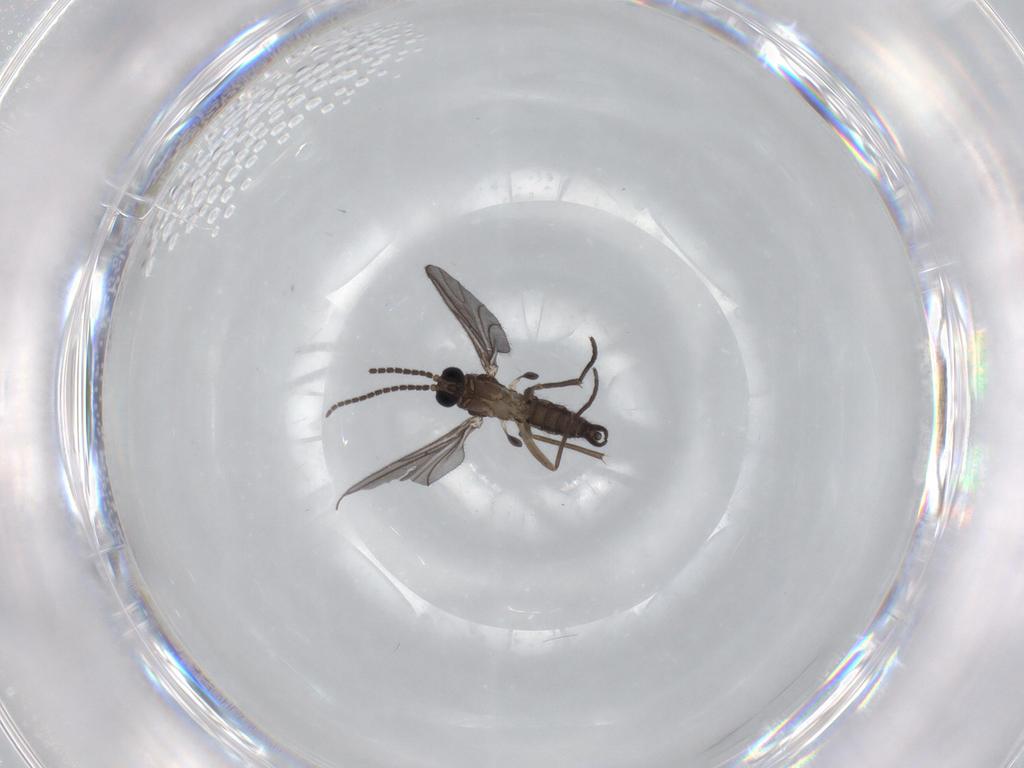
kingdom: Animalia
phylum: Arthropoda
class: Insecta
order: Diptera
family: Sciaridae
